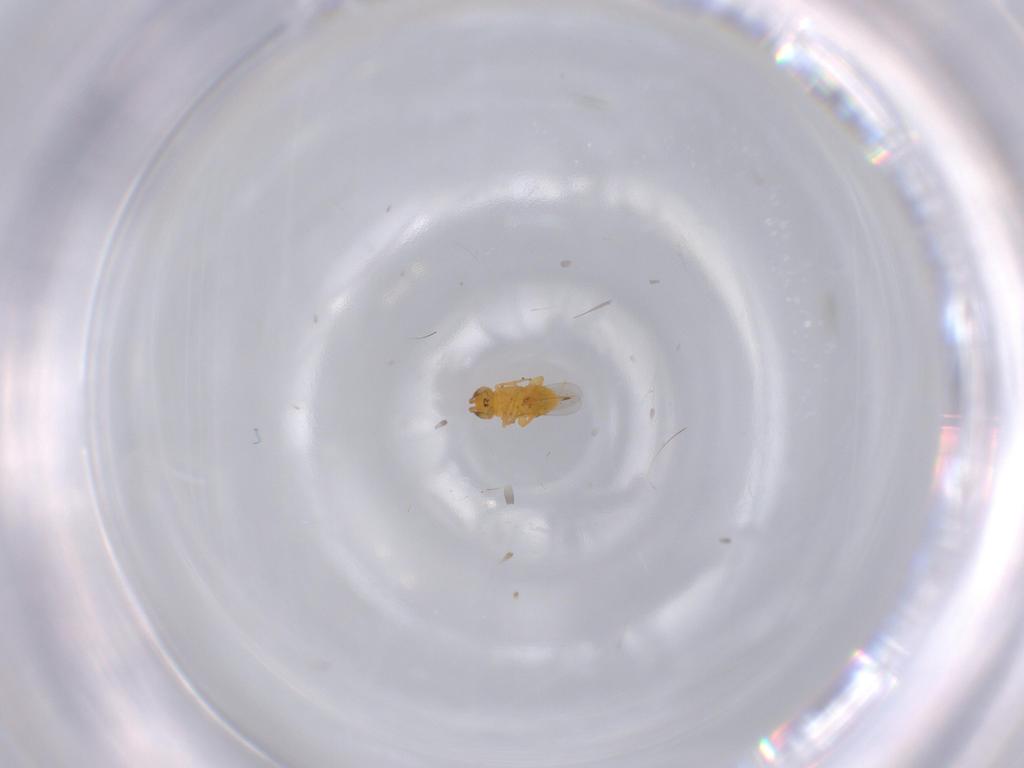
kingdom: Animalia
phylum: Arthropoda
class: Insecta
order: Hymenoptera
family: Encyrtidae
